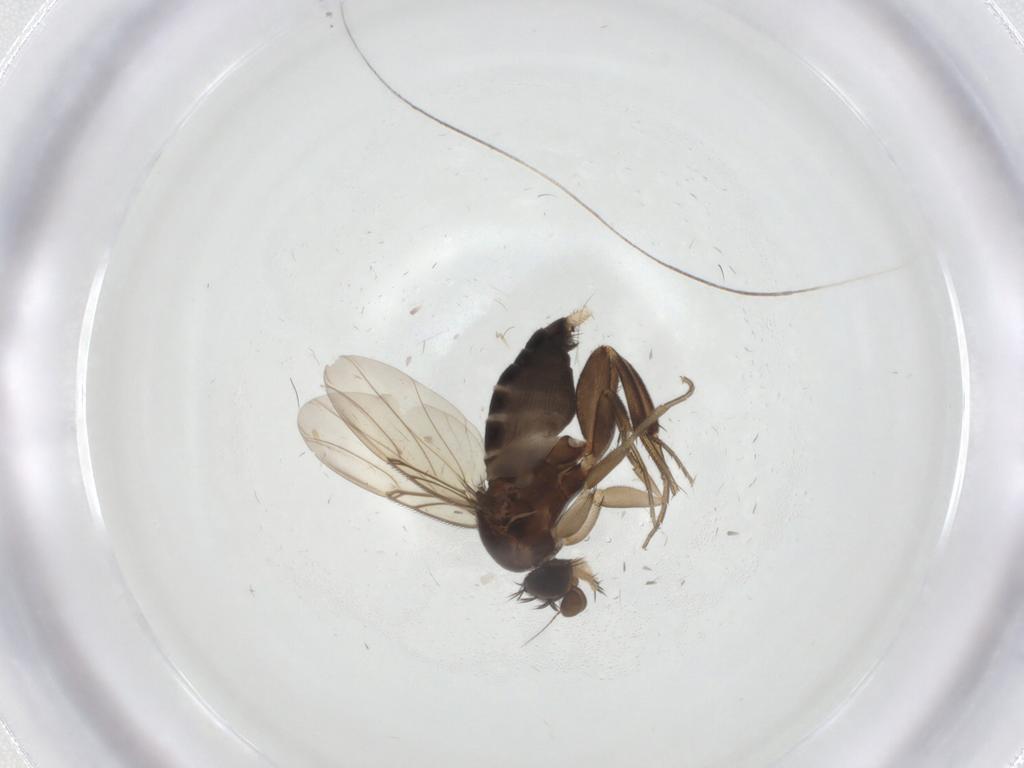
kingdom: Animalia
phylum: Arthropoda
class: Insecta
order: Diptera
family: Phoridae
